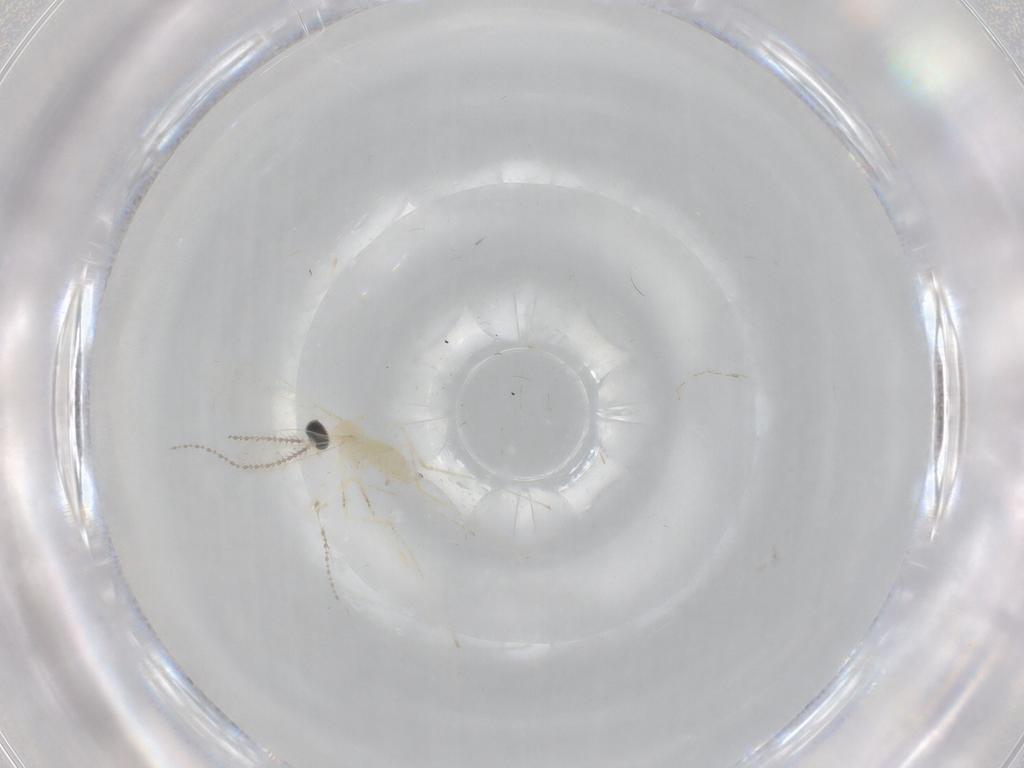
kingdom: Animalia
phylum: Arthropoda
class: Insecta
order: Diptera
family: Cecidomyiidae
